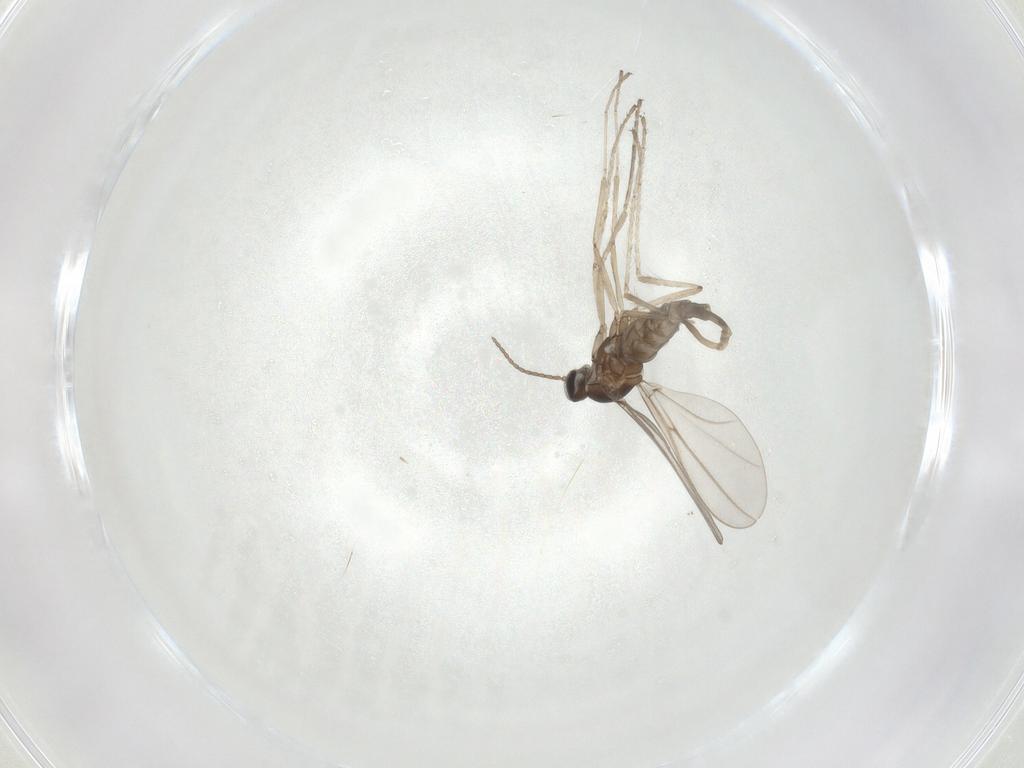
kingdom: Animalia
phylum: Arthropoda
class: Insecta
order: Diptera
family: Cecidomyiidae
